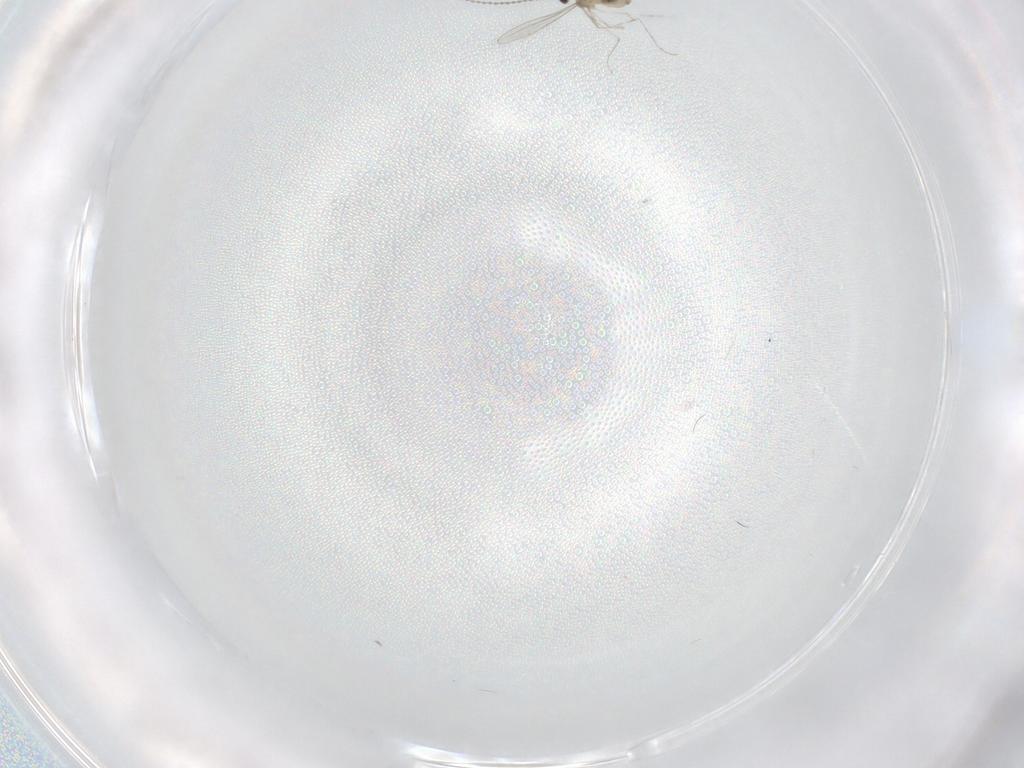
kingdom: Animalia
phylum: Arthropoda
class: Insecta
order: Diptera
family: Cecidomyiidae
